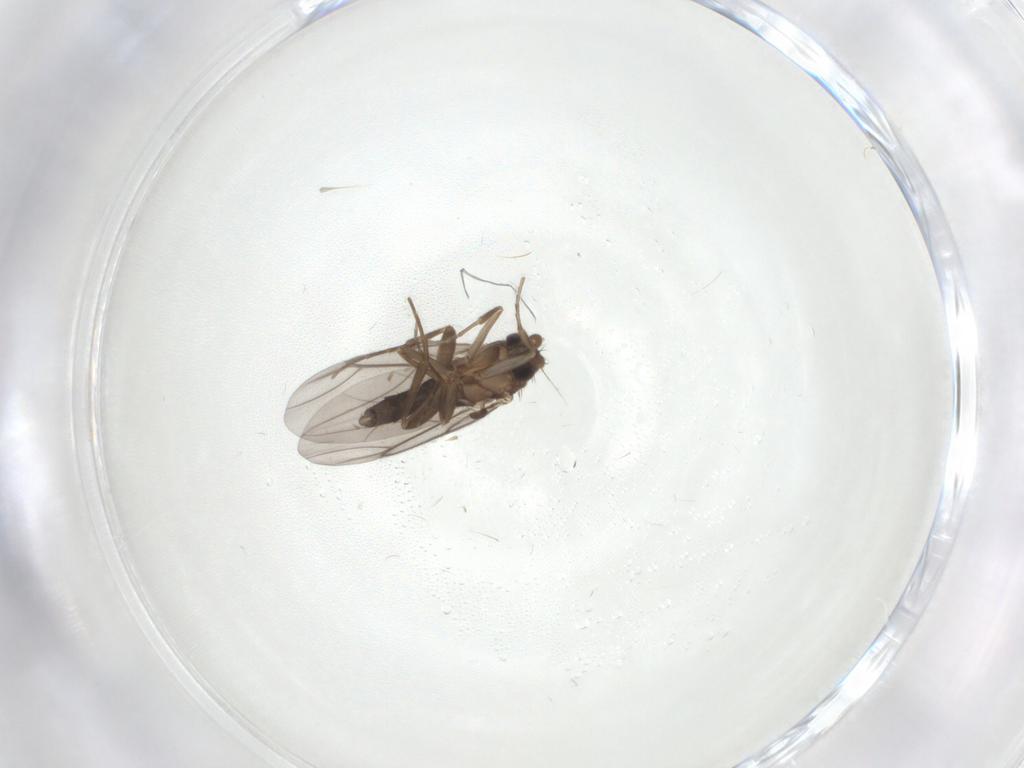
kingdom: Animalia
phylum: Arthropoda
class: Insecta
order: Diptera
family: Phoridae
